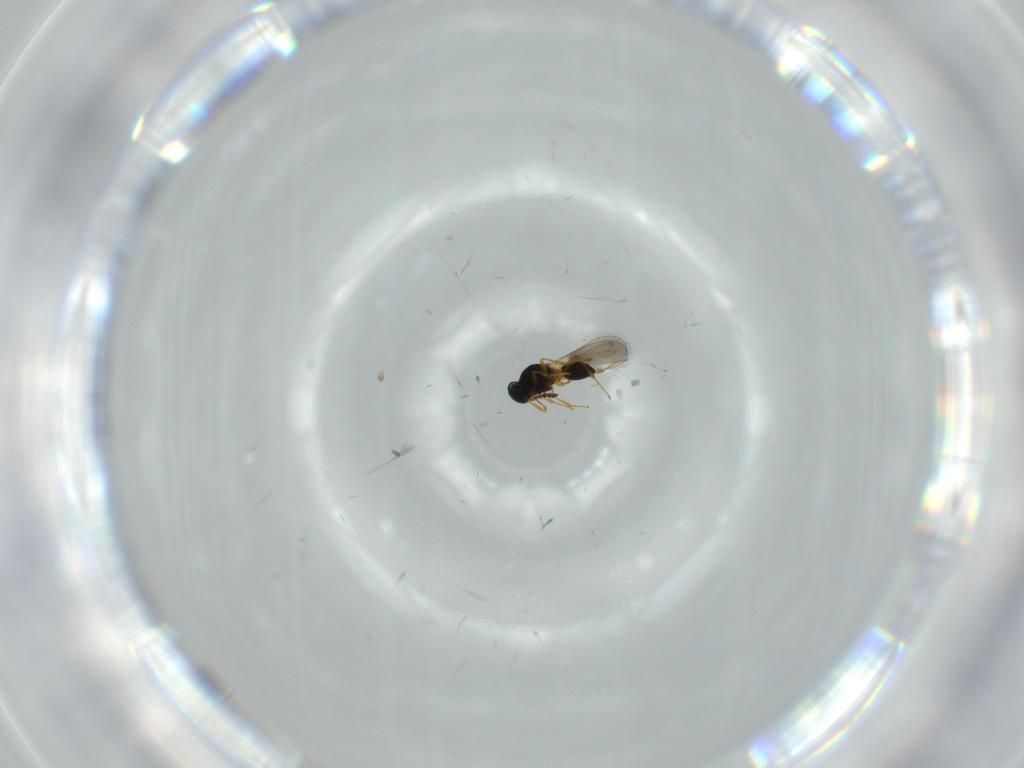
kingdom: Animalia
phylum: Arthropoda
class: Insecta
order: Hymenoptera
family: Platygastridae
